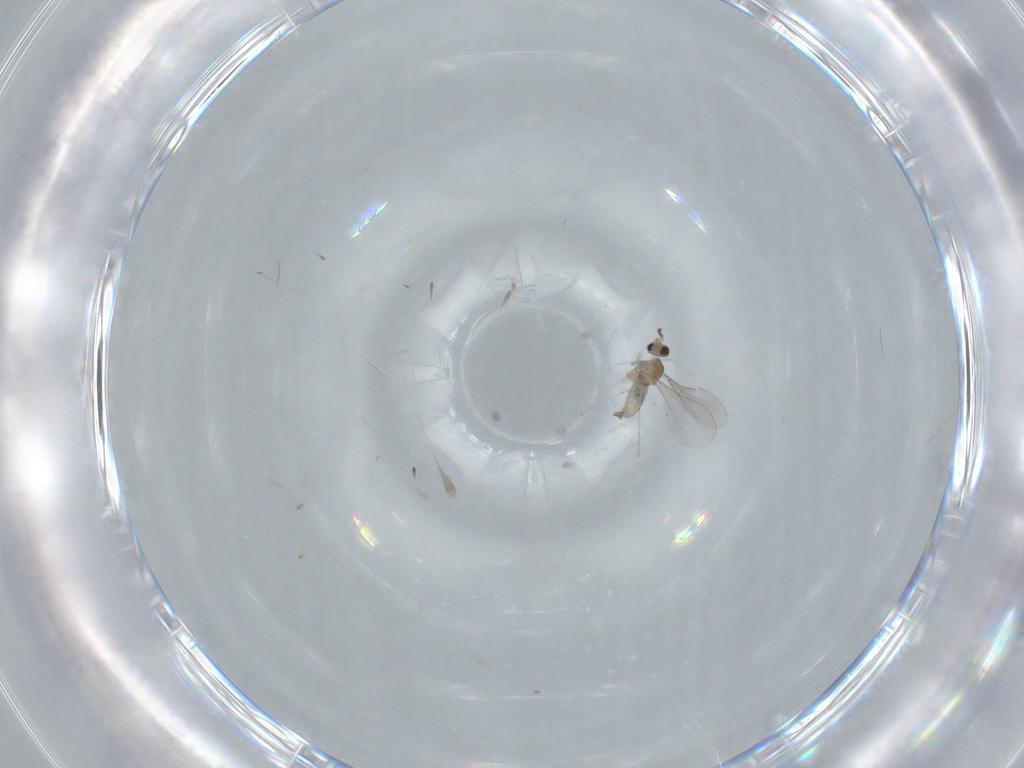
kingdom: Animalia
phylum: Arthropoda
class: Insecta
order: Diptera
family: Cecidomyiidae
